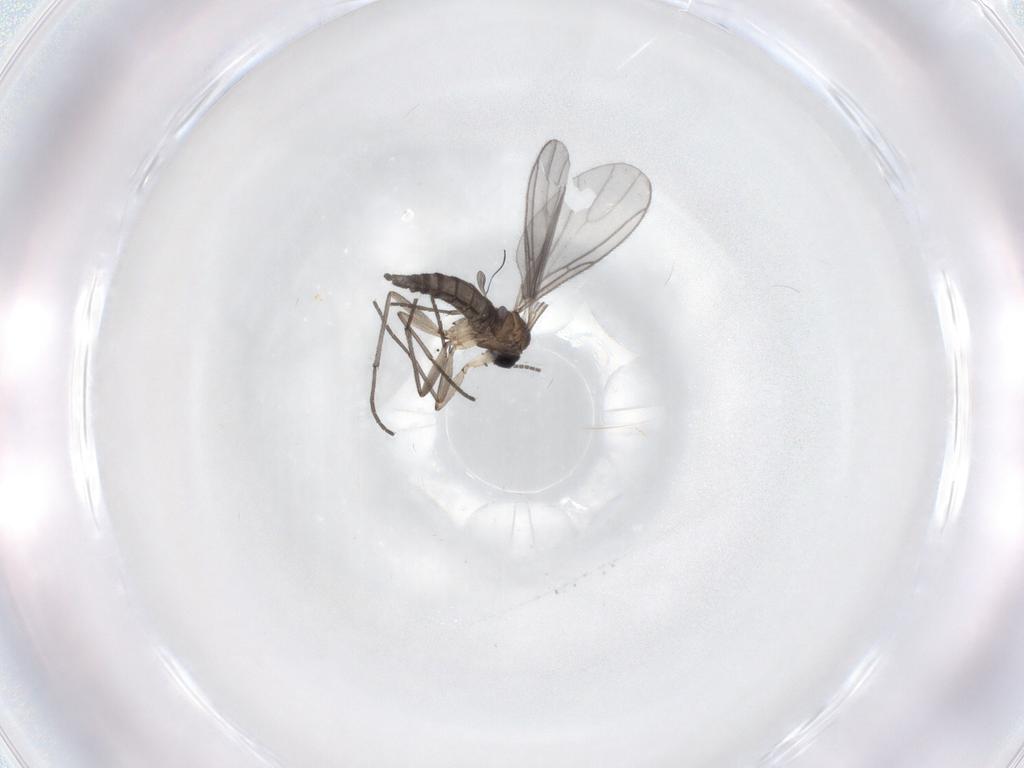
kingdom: Animalia
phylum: Arthropoda
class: Insecta
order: Diptera
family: Sciaridae
